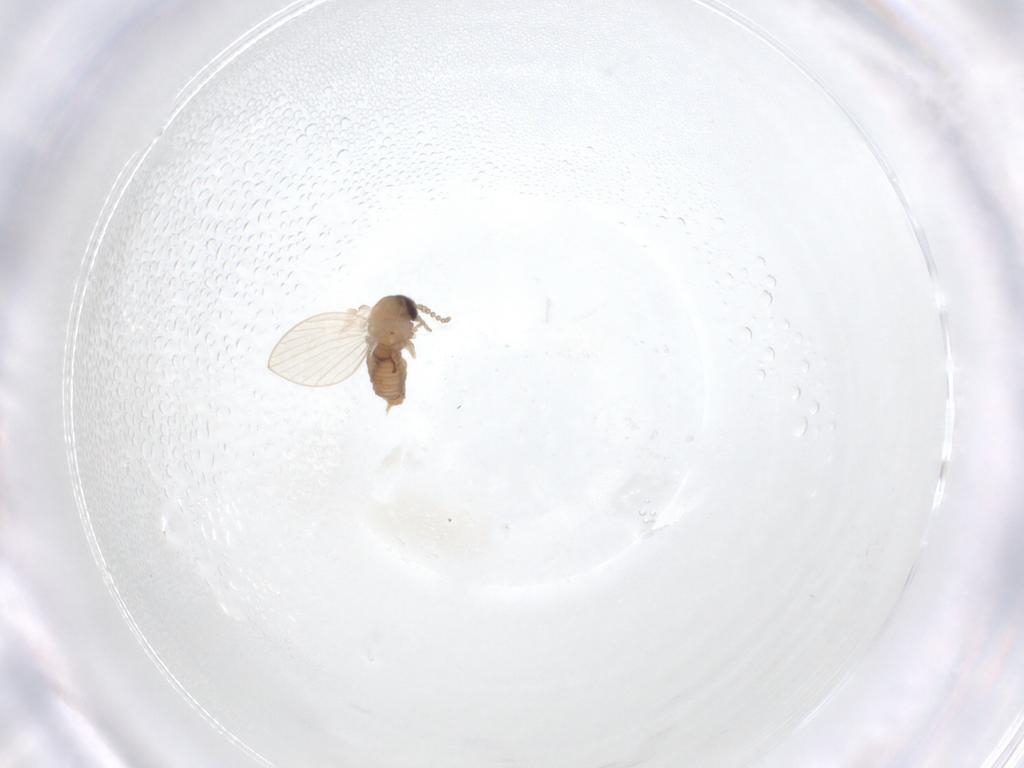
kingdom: Animalia
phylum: Arthropoda
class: Insecta
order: Diptera
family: Psychodidae
